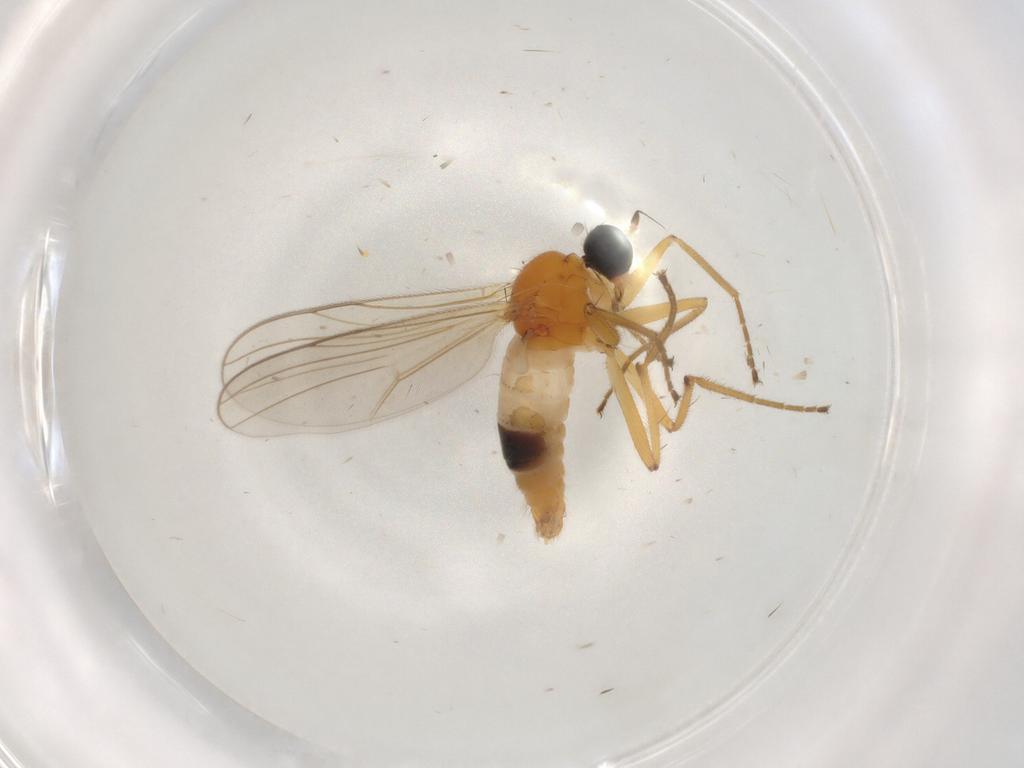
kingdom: Animalia
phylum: Arthropoda
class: Insecta
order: Diptera
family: Hybotidae
